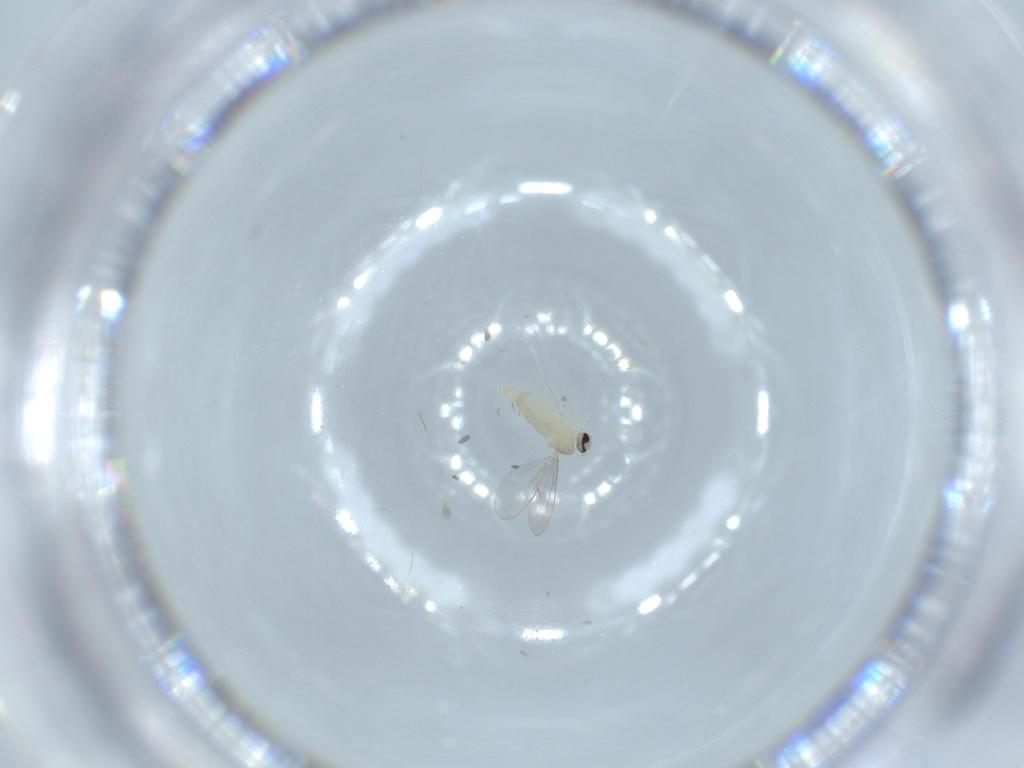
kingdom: Animalia
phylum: Arthropoda
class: Insecta
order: Diptera
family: Cecidomyiidae
